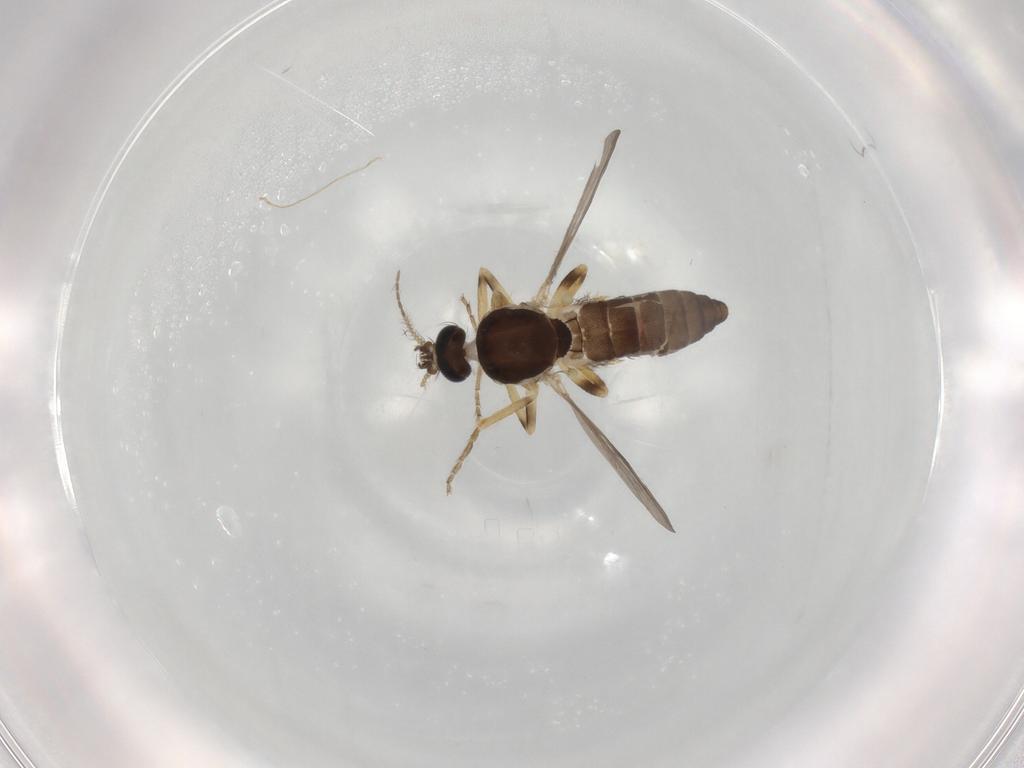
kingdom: Animalia
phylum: Arthropoda
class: Insecta
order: Diptera
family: Ceratopogonidae
